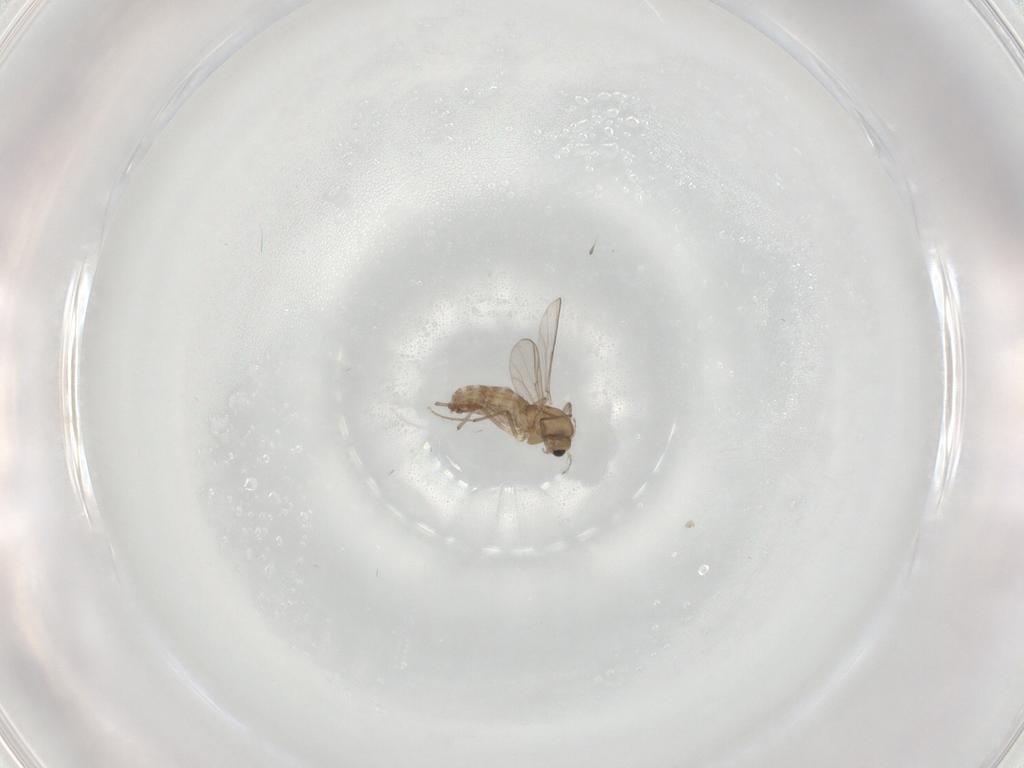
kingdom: Animalia
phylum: Arthropoda
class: Insecta
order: Diptera
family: Chironomidae
